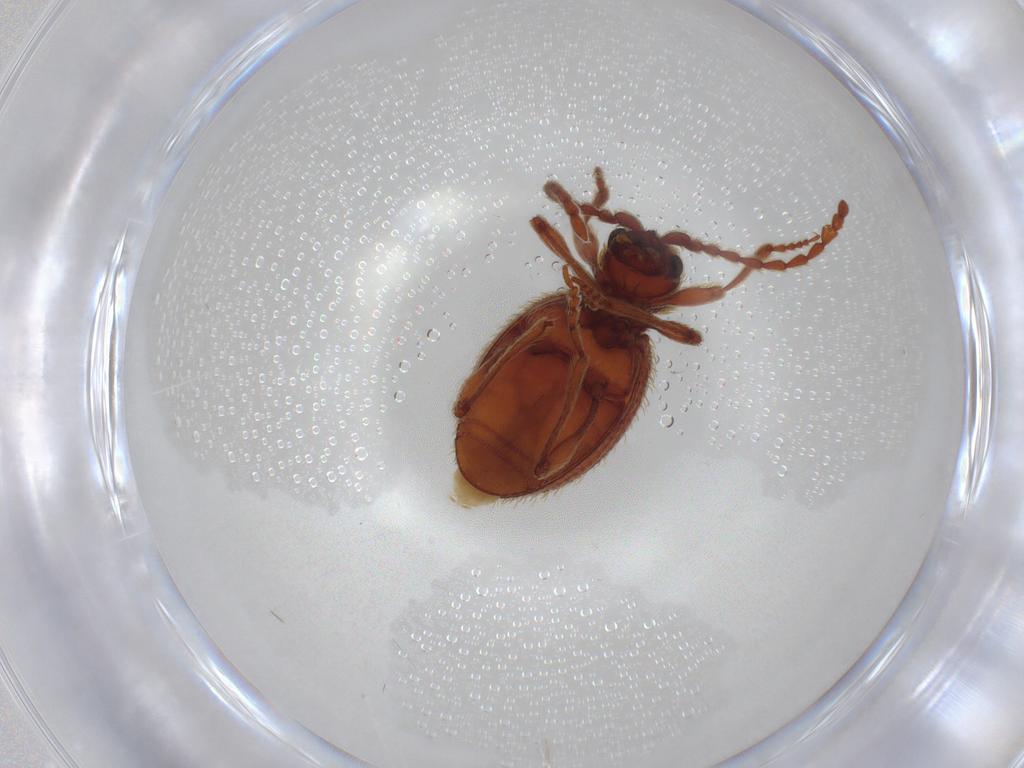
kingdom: Animalia
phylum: Arthropoda
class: Insecta
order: Coleoptera
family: Ptinidae
